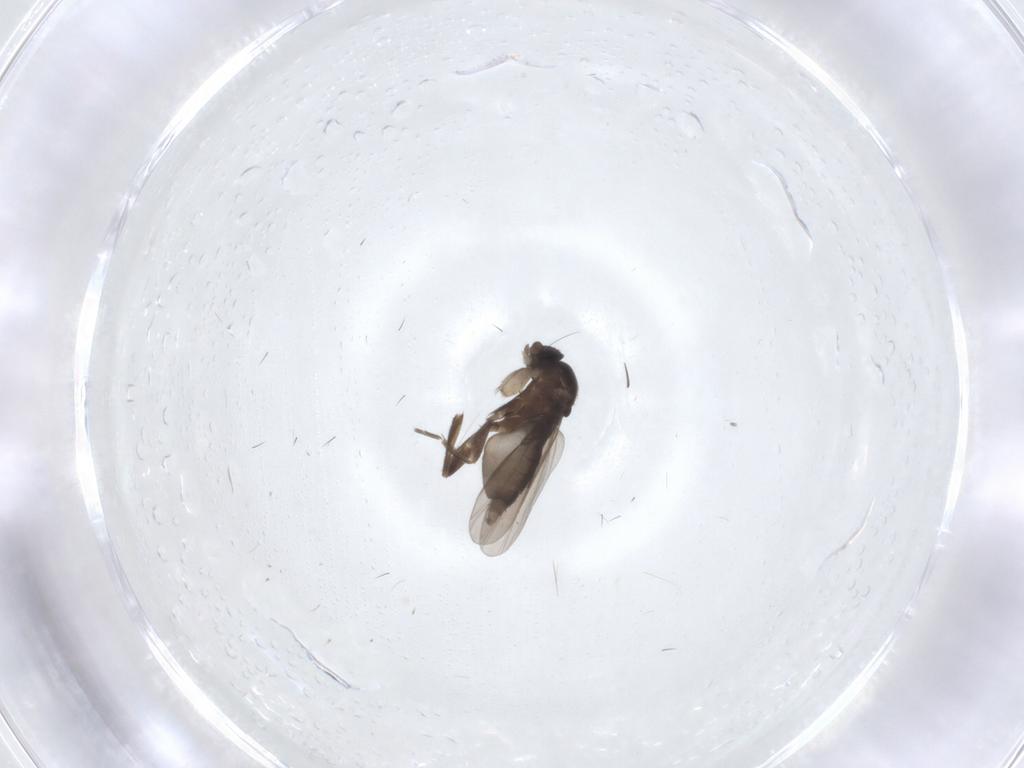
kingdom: Animalia
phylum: Arthropoda
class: Insecta
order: Diptera
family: Phoridae
